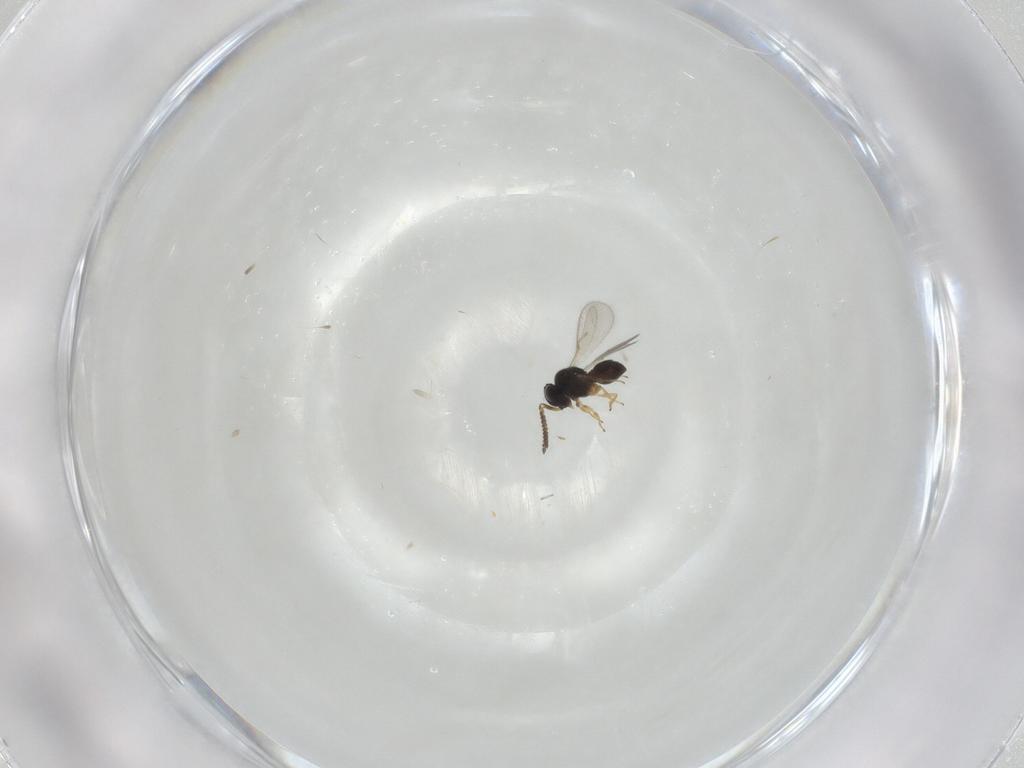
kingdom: Animalia
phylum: Arthropoda
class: Insecta
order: Hymenoptera
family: Scelionidae
